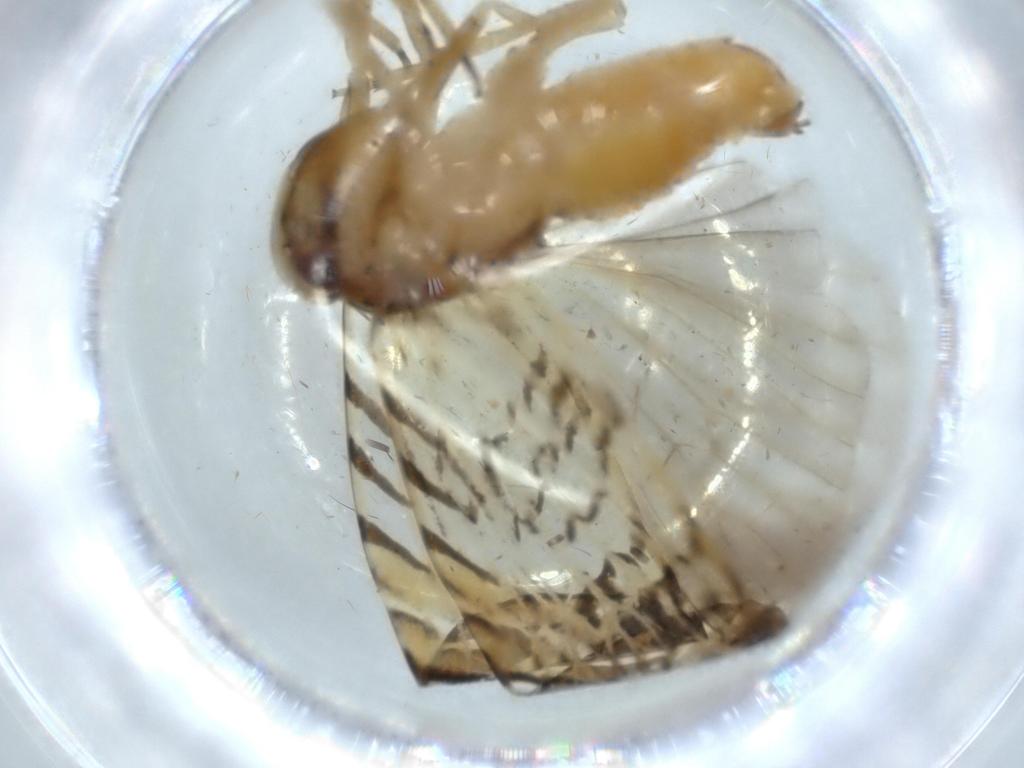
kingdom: Animalia
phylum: Arthropoda
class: Insecta
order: Hemiptera
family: Cixiidae
